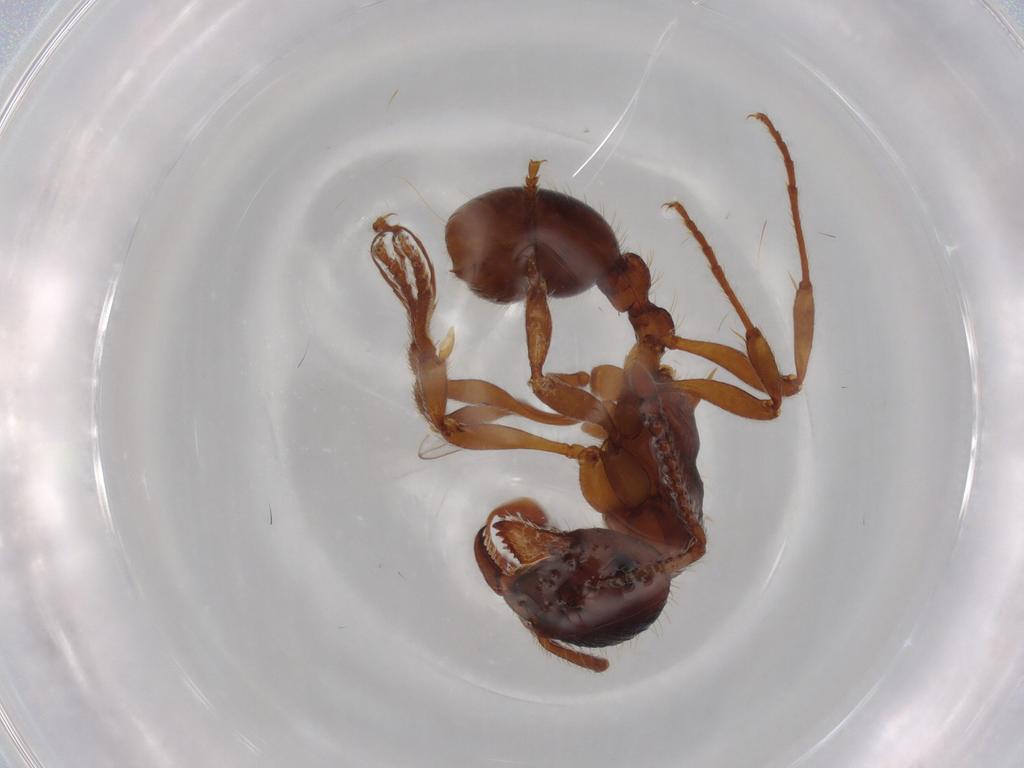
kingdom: Animalia
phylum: Arthropoda
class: Insecta
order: Hymenoptera
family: Formicidae
